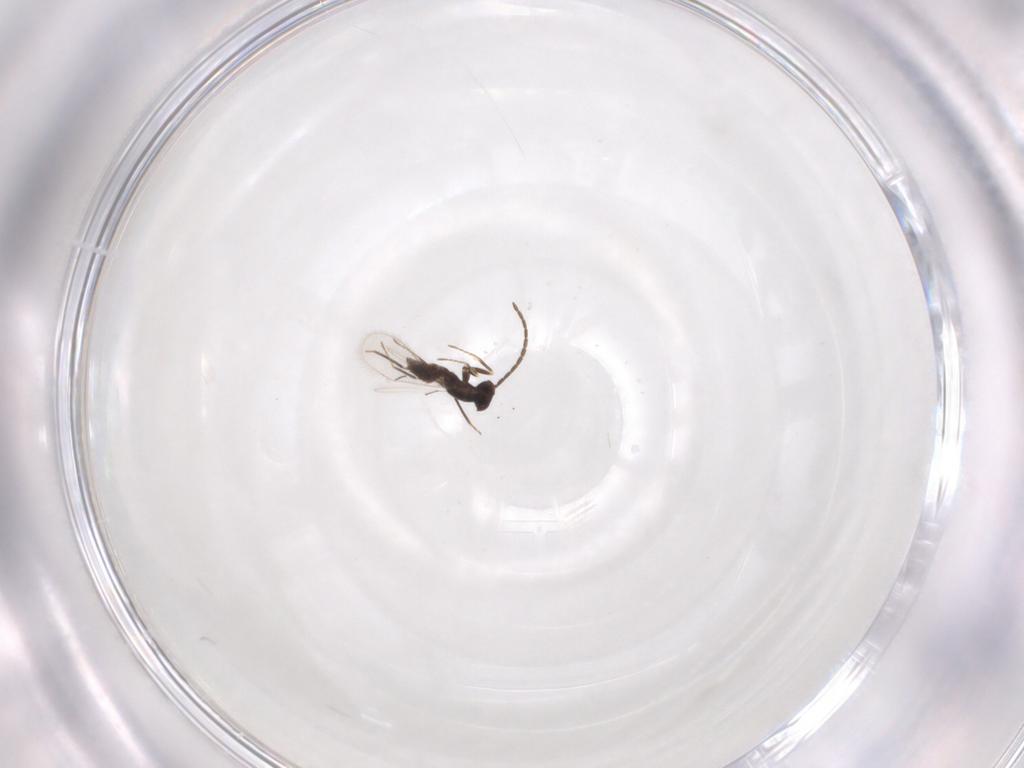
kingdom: Animalia
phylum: Arthropoda
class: Insecta
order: Hymenoptera
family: Mymaridae
